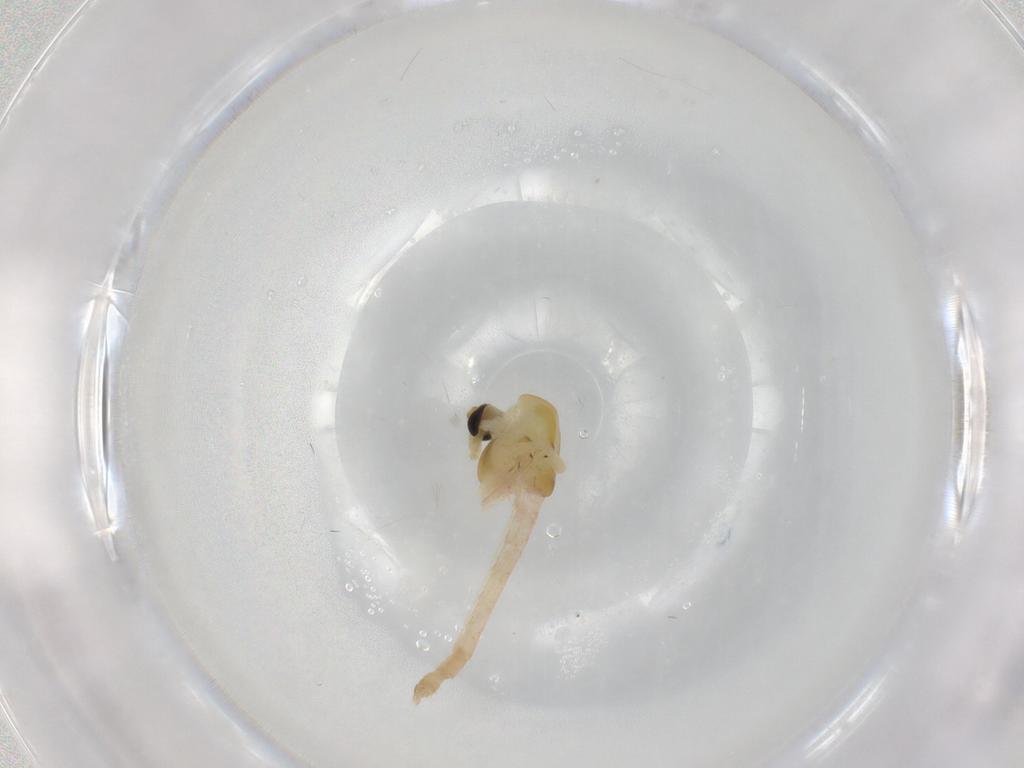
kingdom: Animalia
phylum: Arthropoda
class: Insecta
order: Diptera
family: Chironomidae
